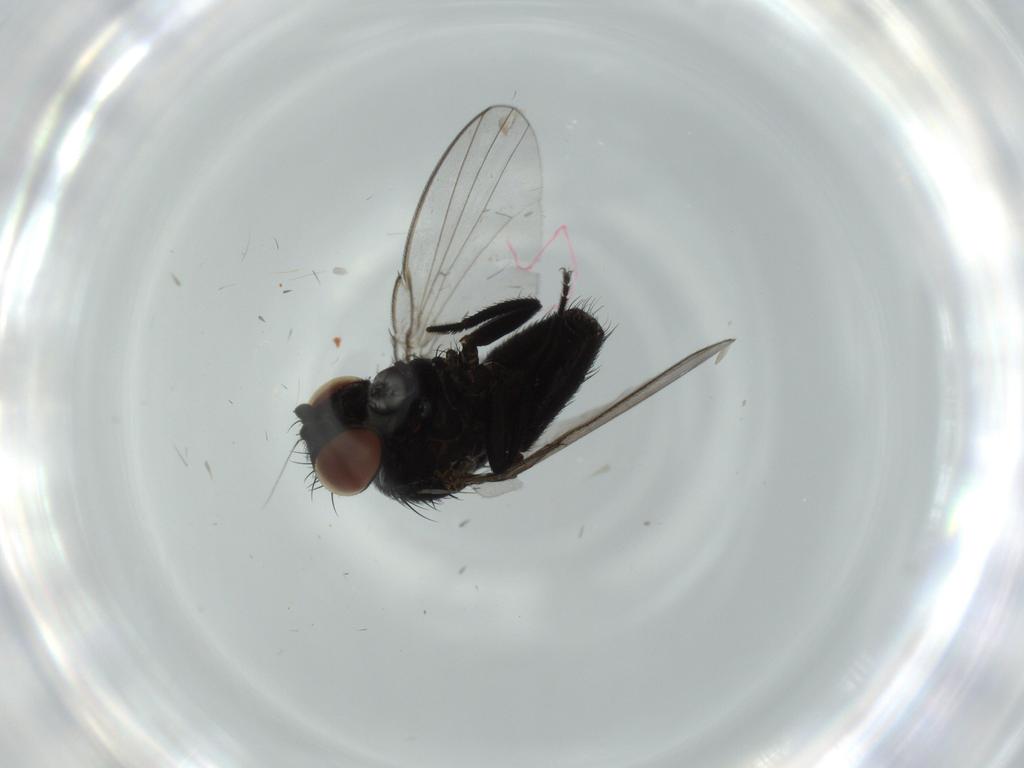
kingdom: Animalia
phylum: Arthropoda
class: Insecta
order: Diptera
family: Milichiidae
